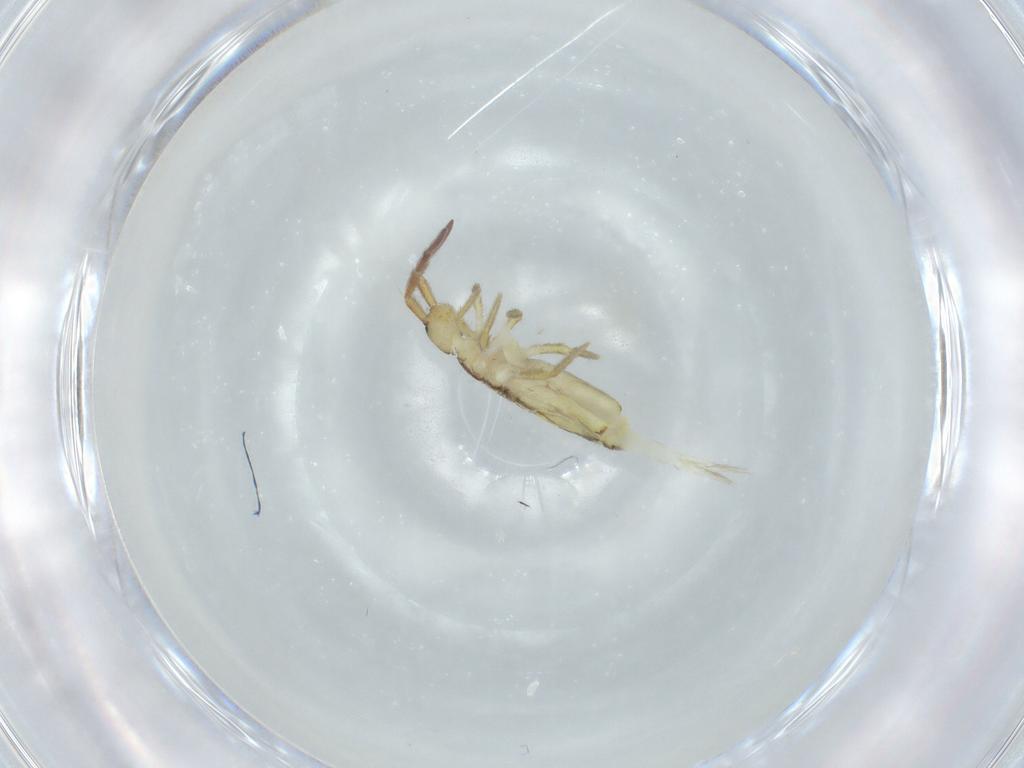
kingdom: Animalia
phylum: Arthropoda
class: Collembola
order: Entomobryomorpha
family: Entomobryidae
